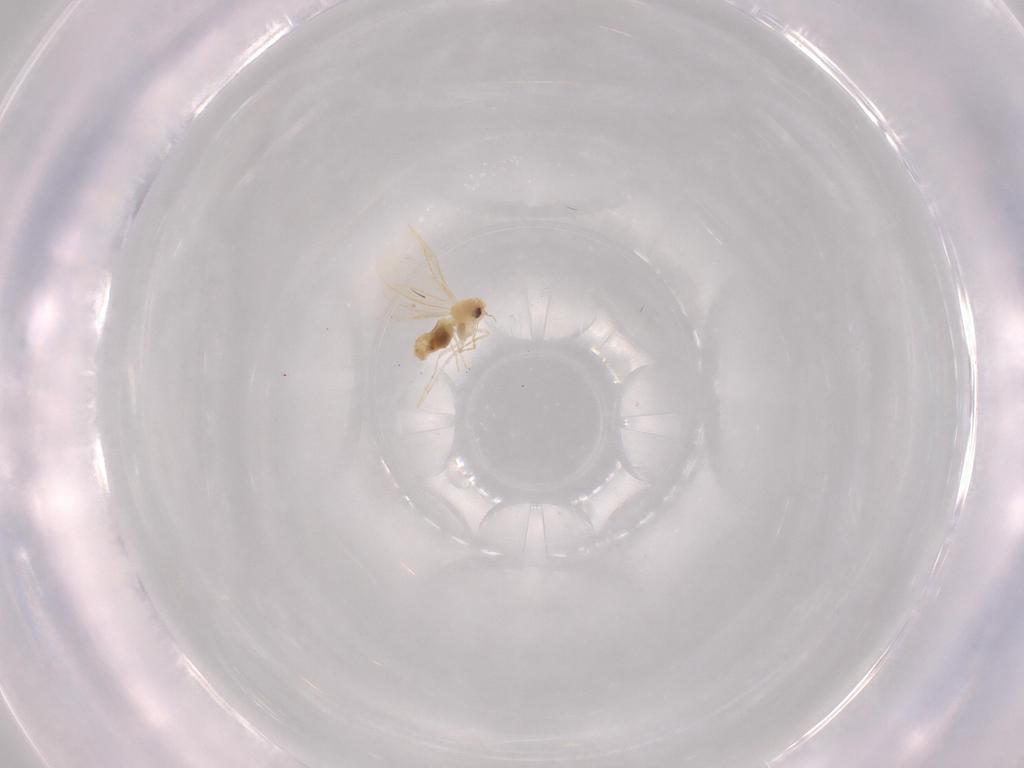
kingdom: Animalia
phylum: Arthropoda
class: Insecta
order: Hemiptera
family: Aleyrodidae
